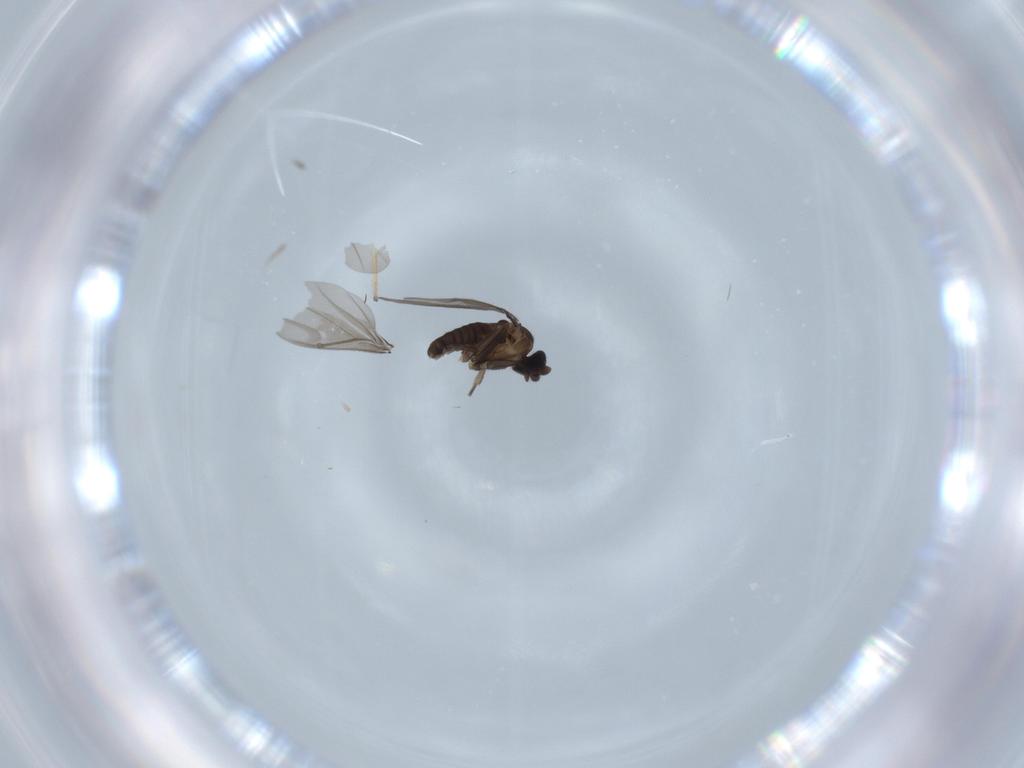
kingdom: Animalia
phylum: Arthropoda
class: Insecta
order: Diptera
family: Phoridae
